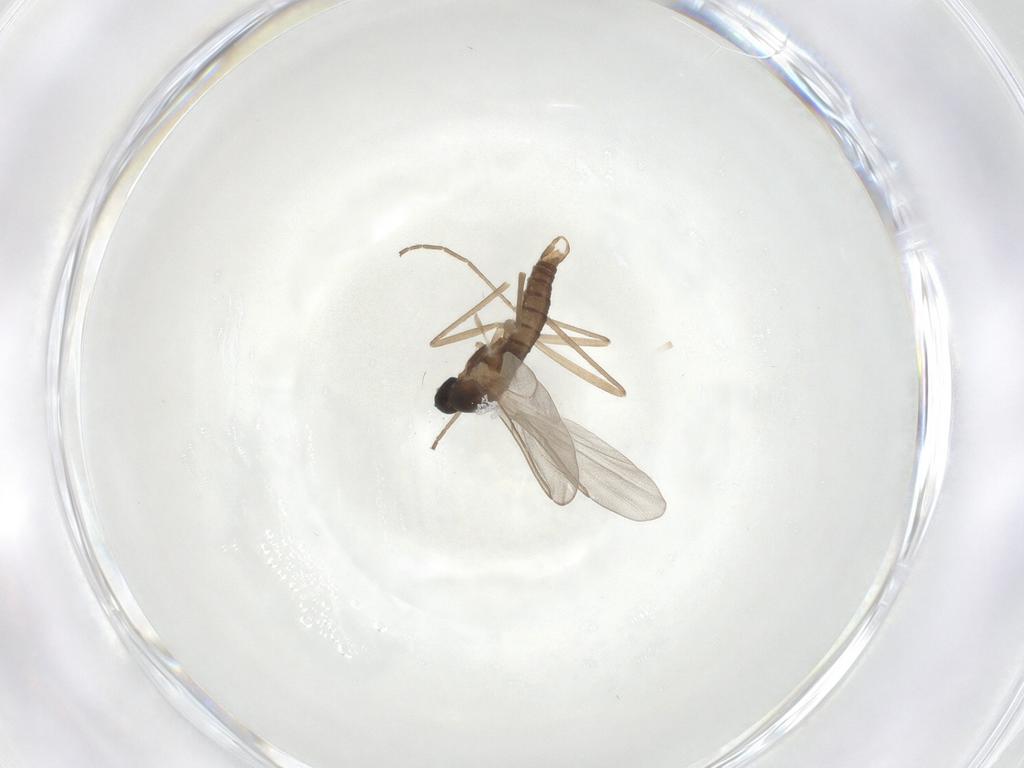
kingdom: Animalia
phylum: Arthropoda
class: Insecta
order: Diptera
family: Cecidomyiidae
